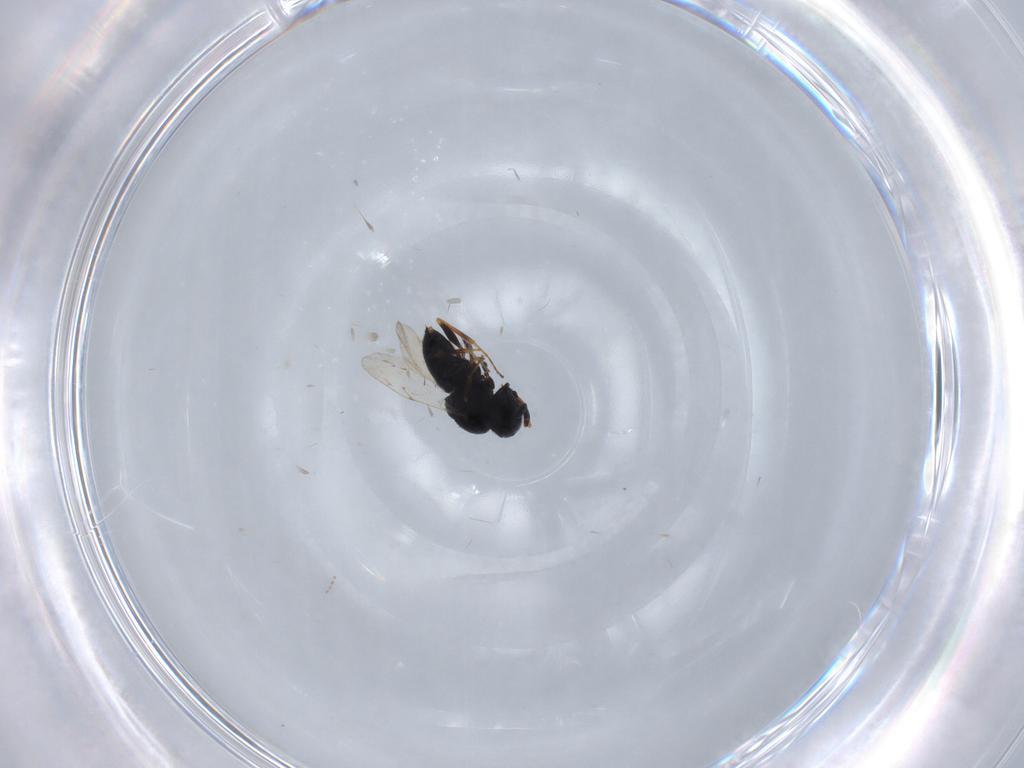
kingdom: Animalia
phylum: Arthropoda
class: Insecta
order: Hymenoptera
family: Scelionidae
